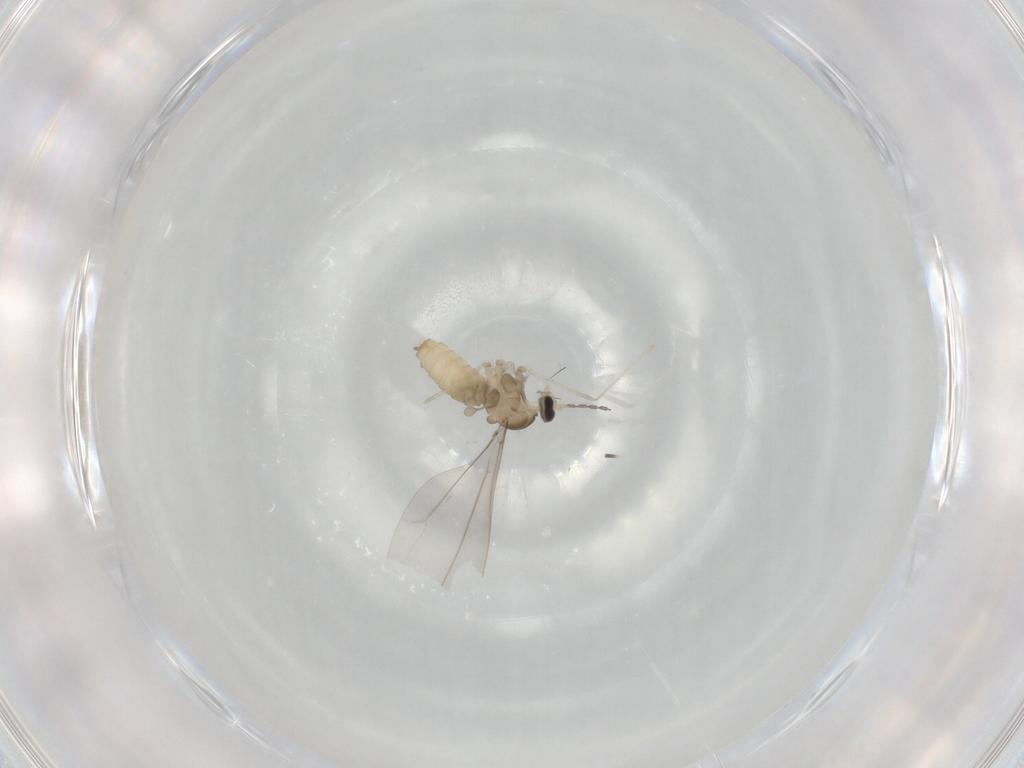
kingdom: Animalia
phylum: Arthropoda
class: Insecta
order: Diptera
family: Cecidomyiidae
